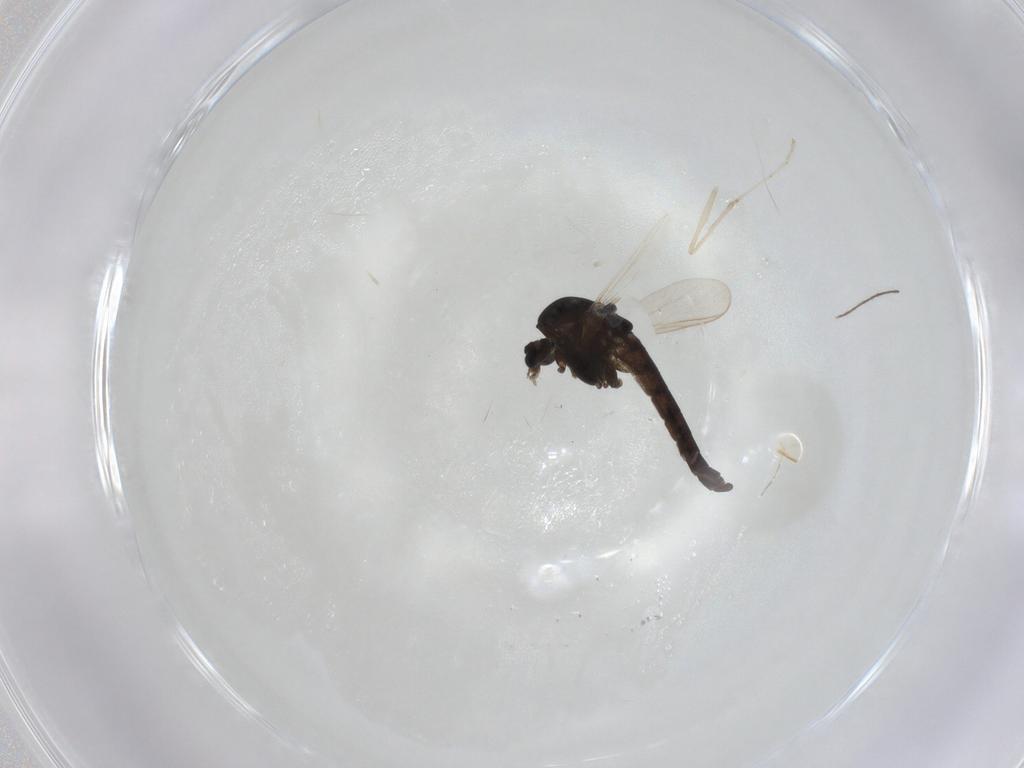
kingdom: Animalia
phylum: Arthropoda
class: Insecta
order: Diptera
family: Chironomidae
